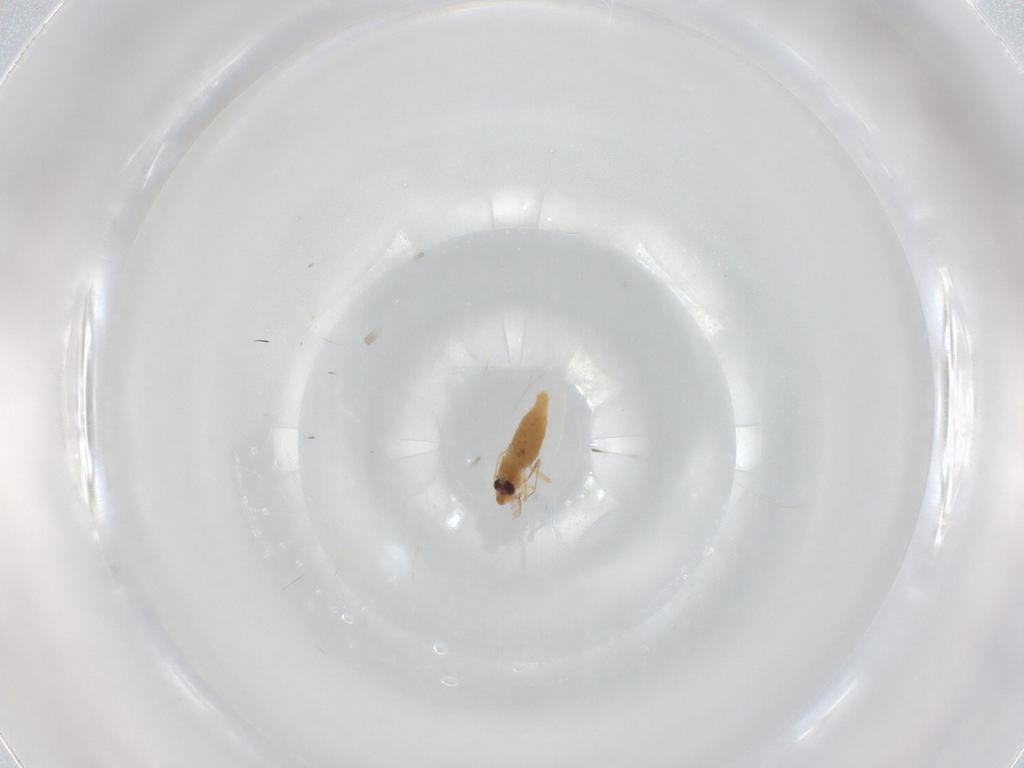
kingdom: Animalia
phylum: Arthropoda
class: Insecta
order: Diptera
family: Chironomidae
